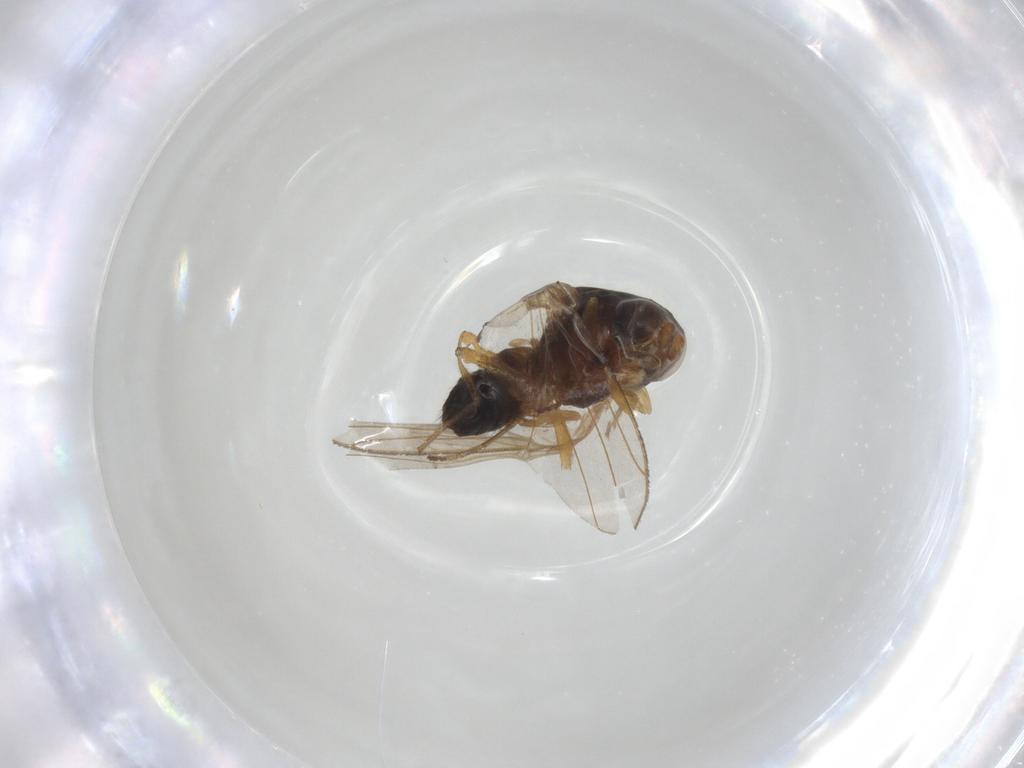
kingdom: Animalia
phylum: Arthropoda
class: Insecta
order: Diptera
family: Drosophilidae
